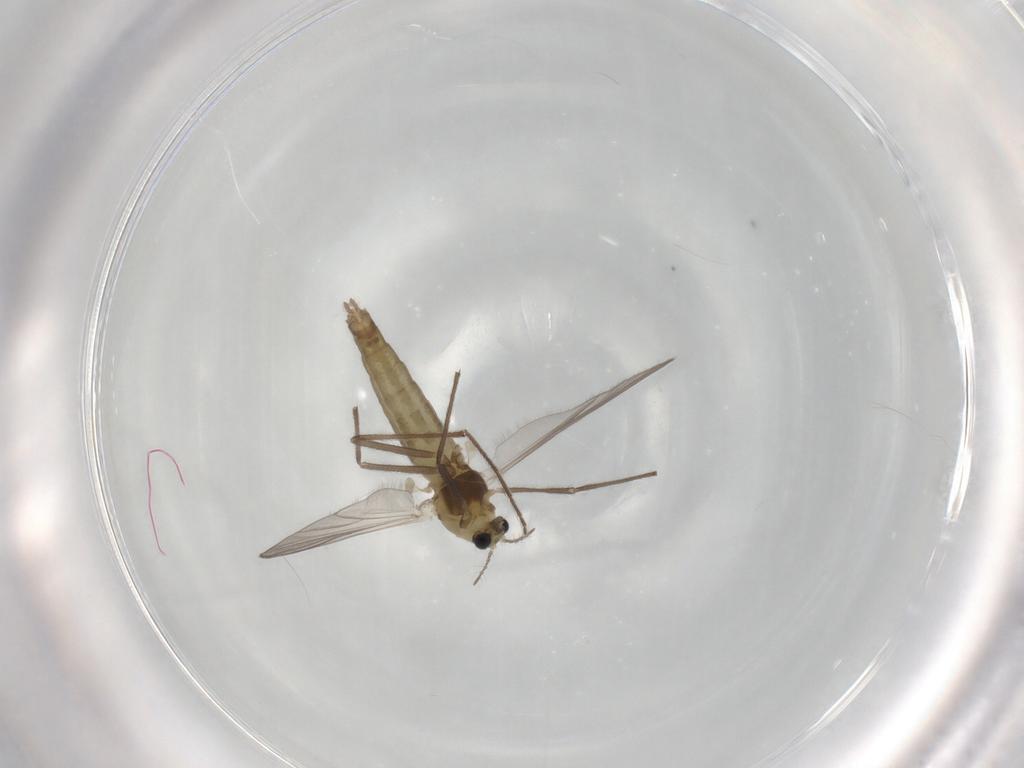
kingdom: Animalia
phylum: Arthropoda
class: Insecta
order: Diptera
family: Chironomidae
